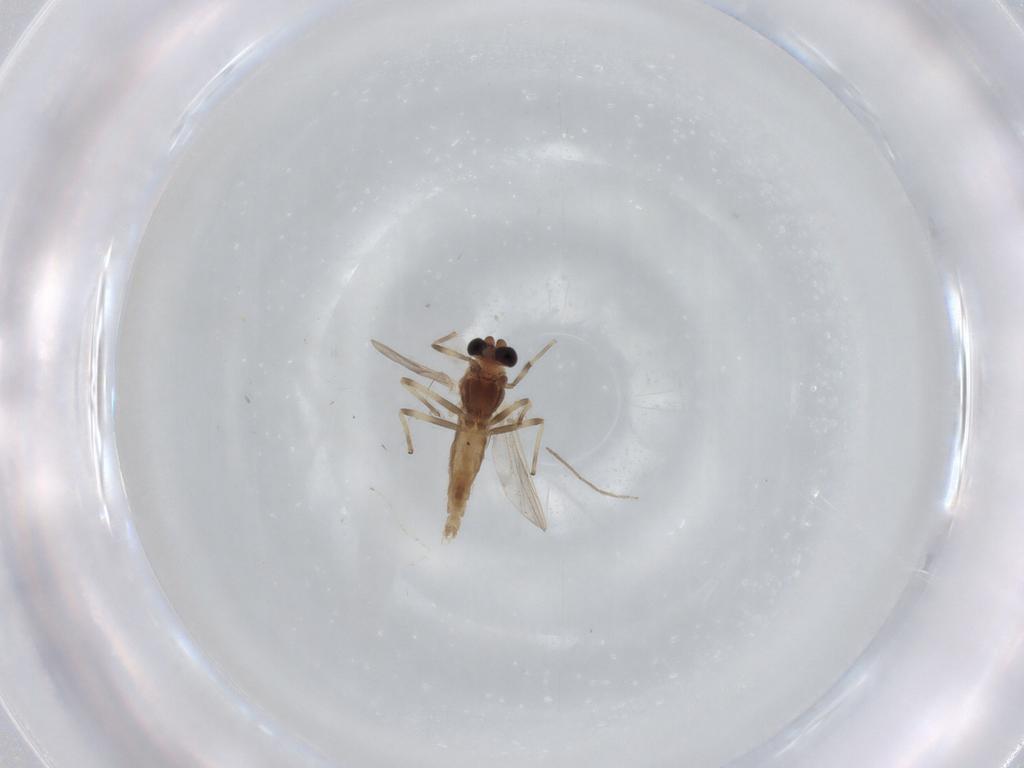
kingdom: Animalia
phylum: Arthropoda
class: Insecta
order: Diptera
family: Chironomidae
